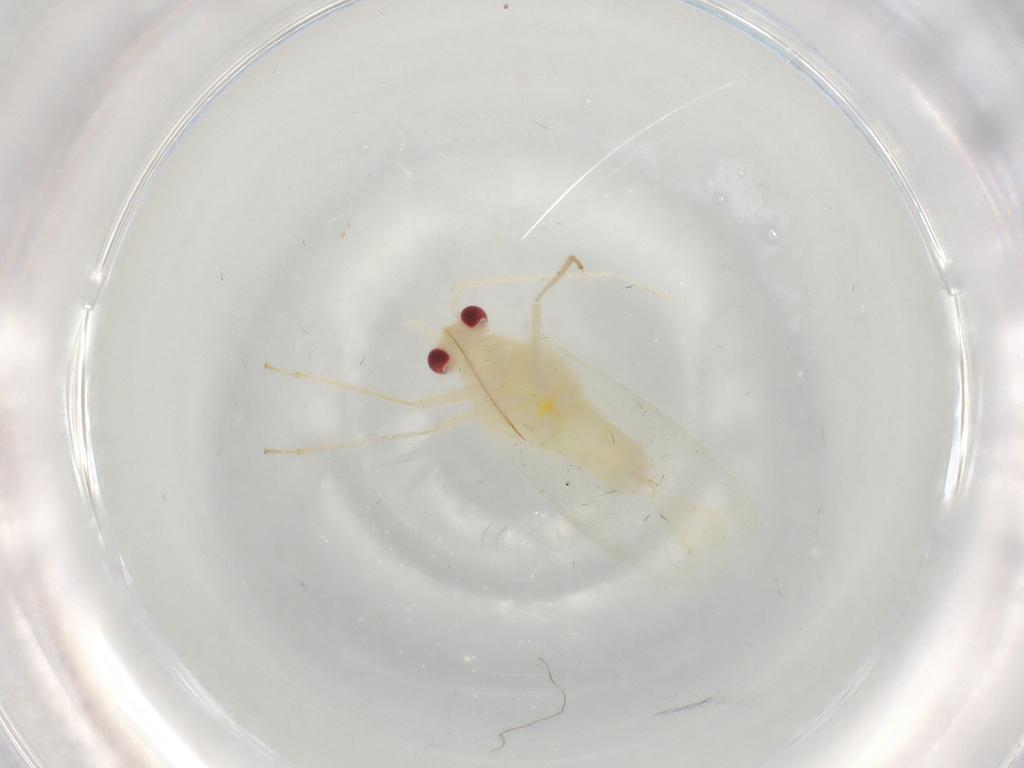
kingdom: Animalia
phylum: Arthropoda
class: Insecta
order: Hemiptera
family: Miridae
